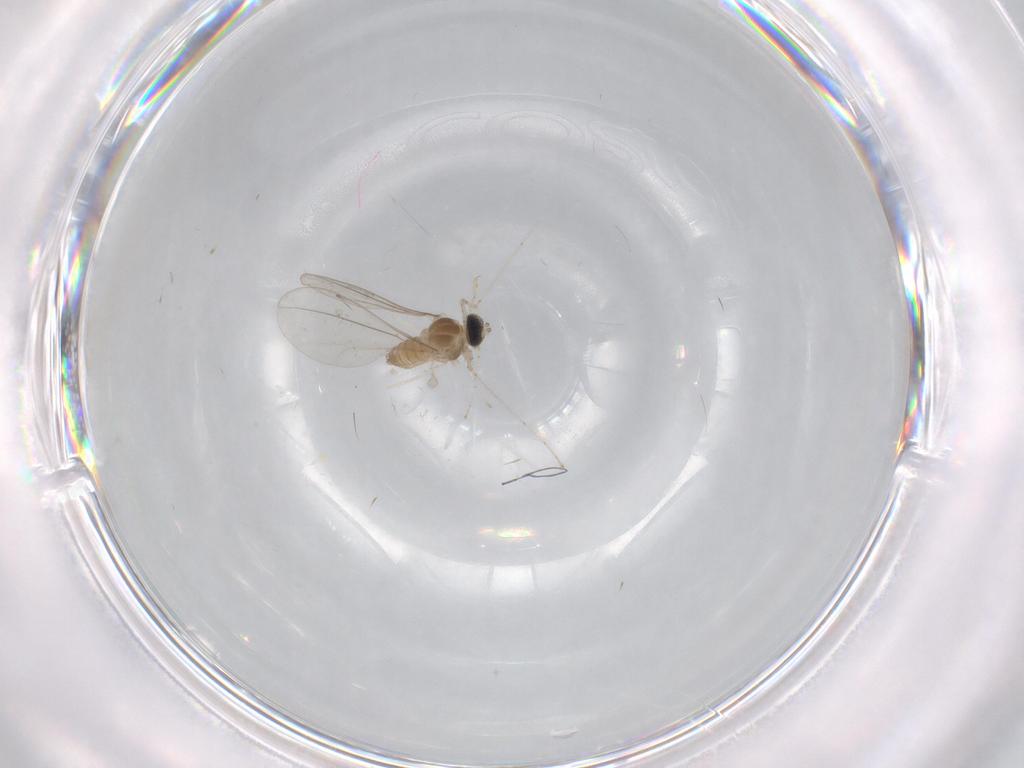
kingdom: Animalia
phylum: Arthropoda
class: Insecta
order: Diptera
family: Cecidomyiidae
